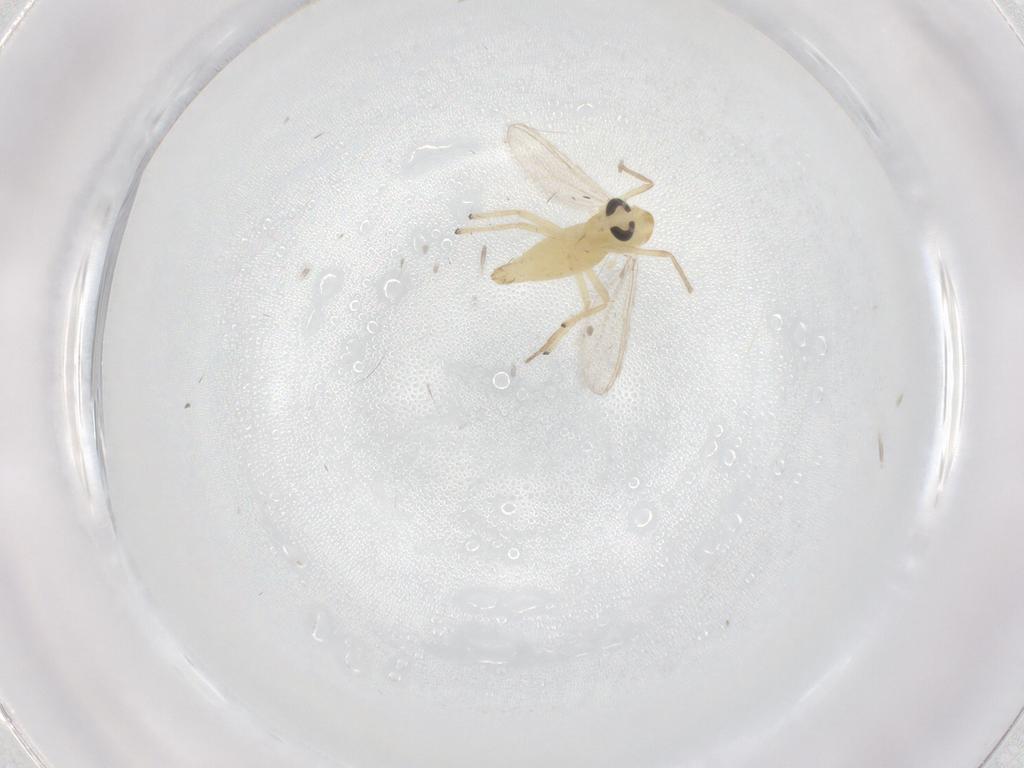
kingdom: Animalia
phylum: Arthropoda
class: Insecta
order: Diptera
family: Chironomidae
